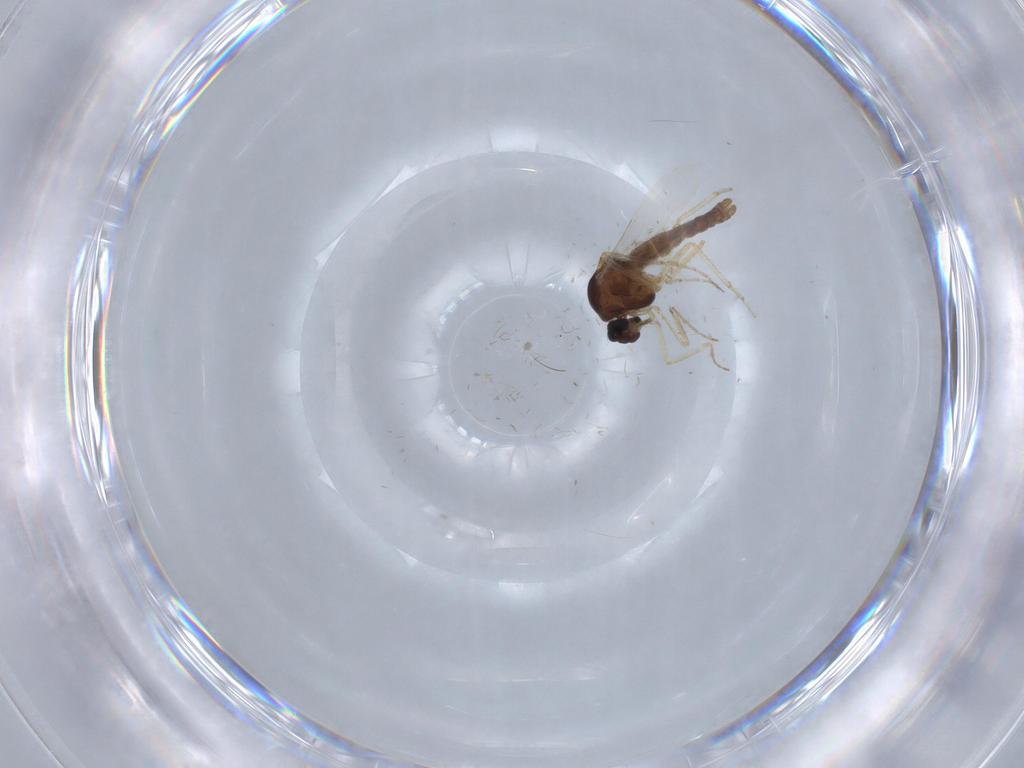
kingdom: Animalia
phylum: Arthropoda
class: Insecta
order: Diptera
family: Ceratopogonidae
